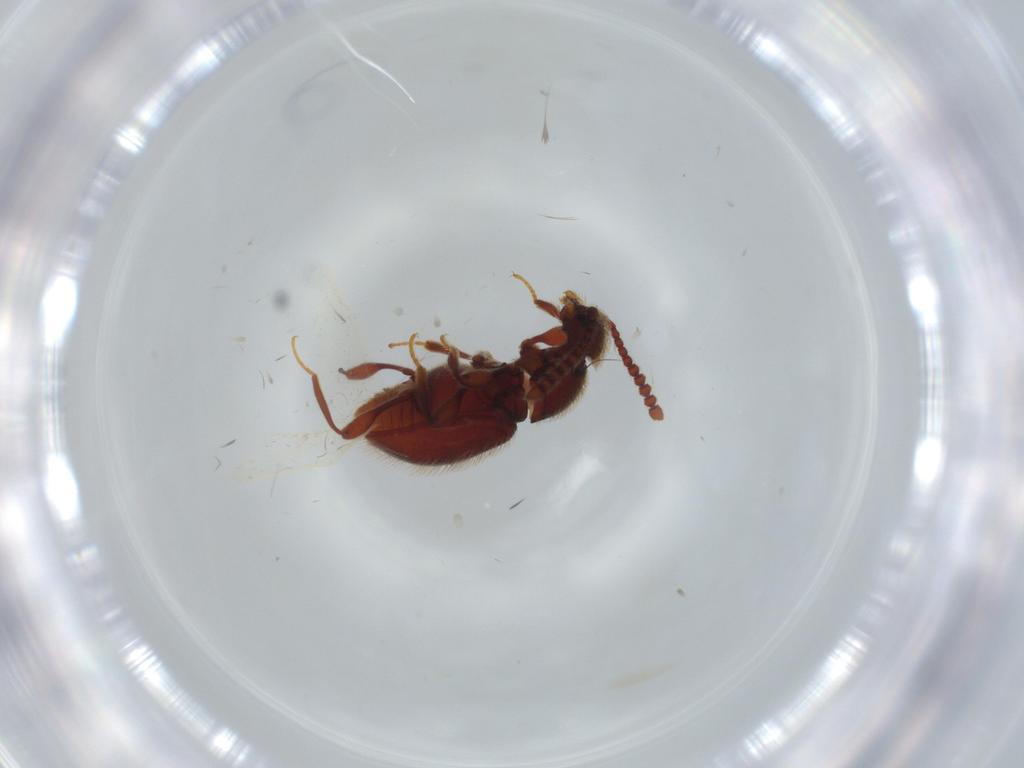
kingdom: Animalia
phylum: Arthropoda
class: Insecta
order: Coleoptera
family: Staphylinidae
